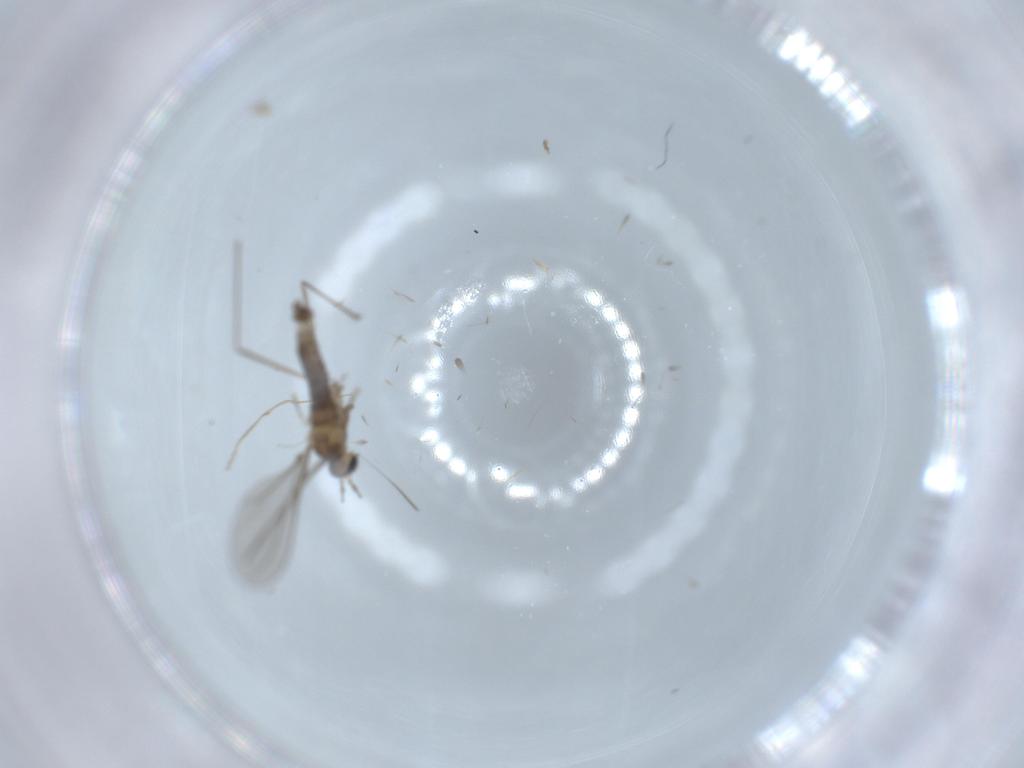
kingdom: Animalia
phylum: Arthropoda
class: Insecta
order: Diptera
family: Cecidomyiidae
